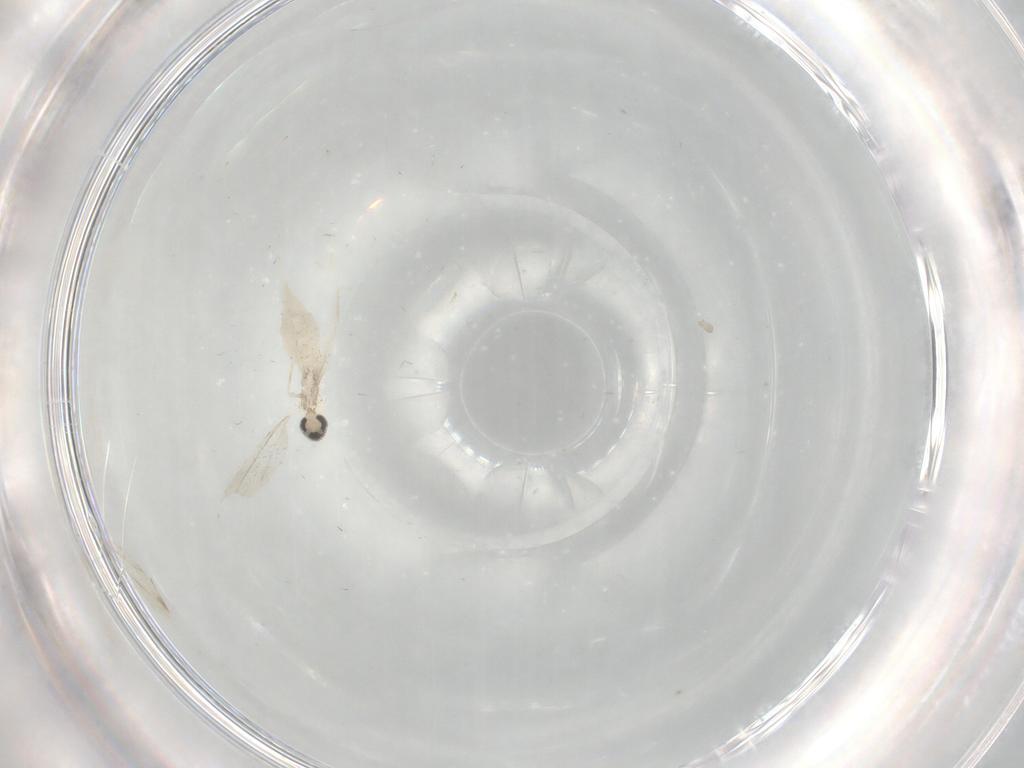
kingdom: Animalia
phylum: Arthropoda
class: Insecta
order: Diptera
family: Cecidomyiidae
